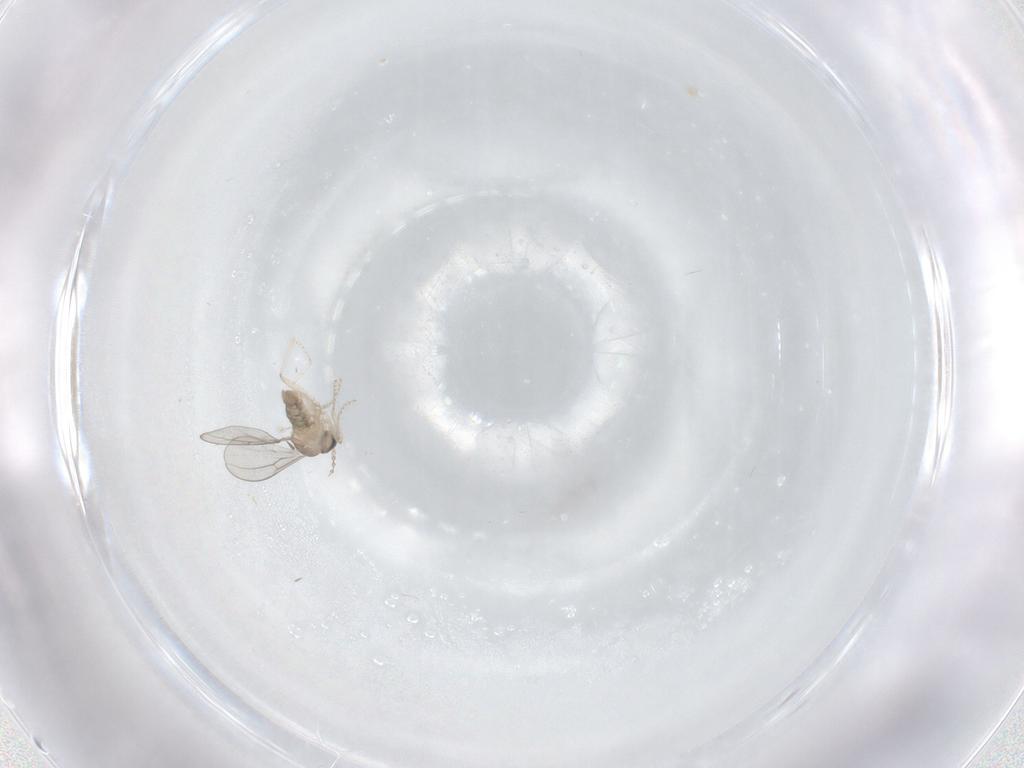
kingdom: Animalia
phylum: Arthropoda
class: Insecta
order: Diptera
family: Cecidomyiidae
